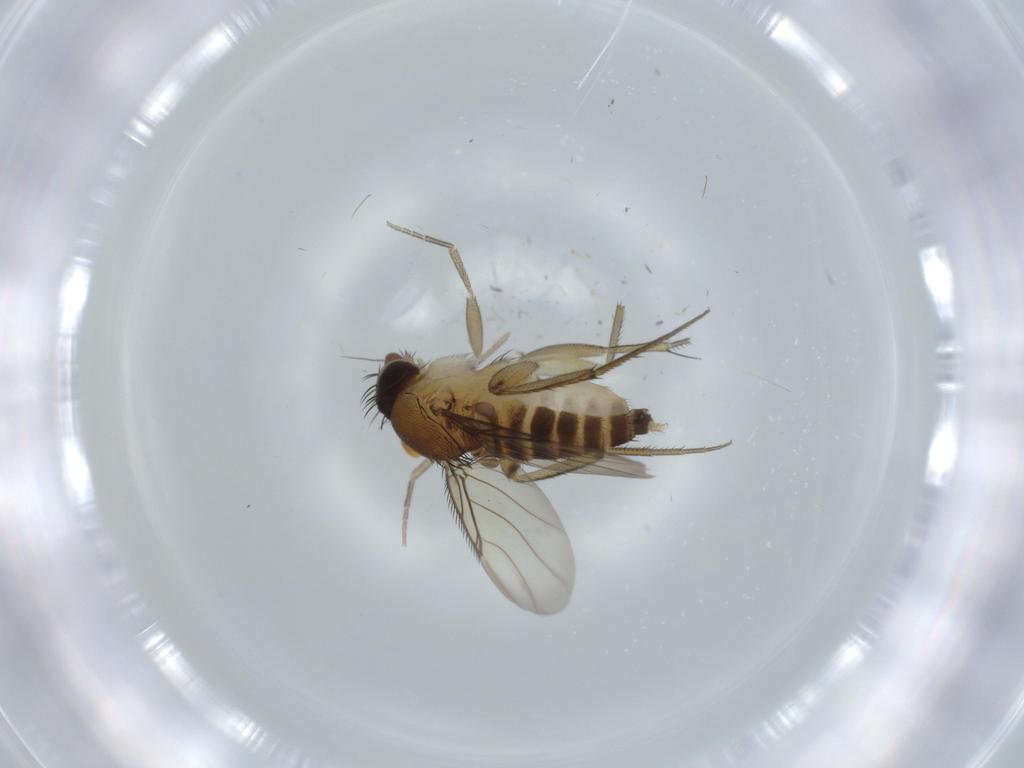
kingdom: Animalia
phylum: Arthropoda
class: Insecta
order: Diptera
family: Phoridae
